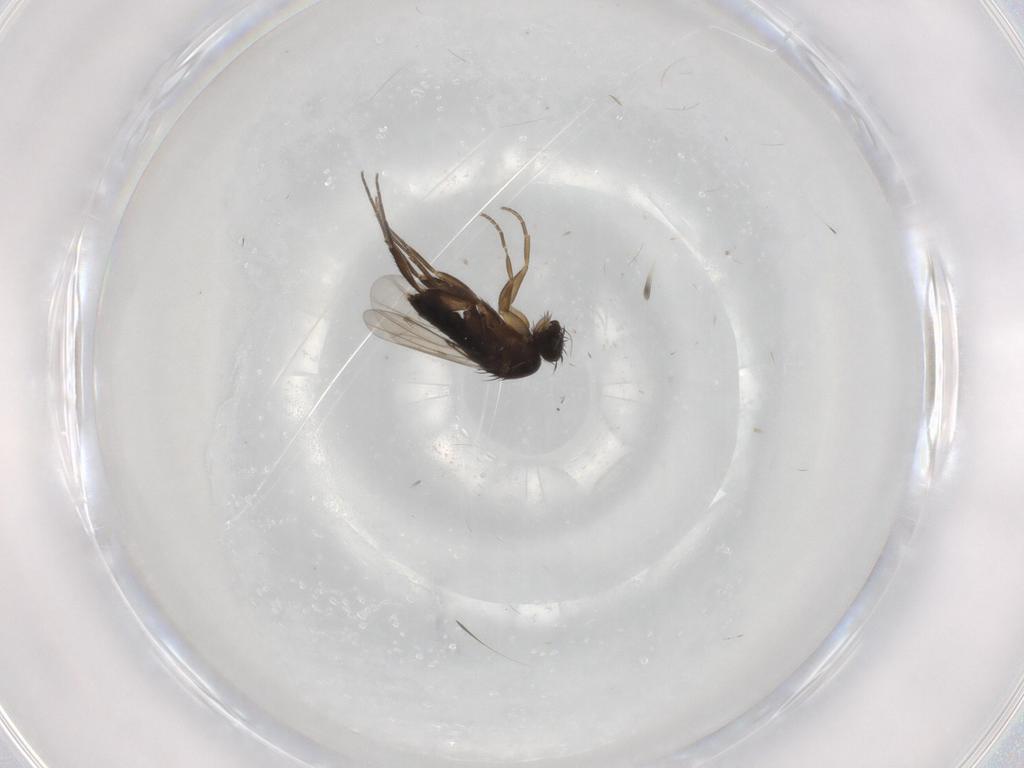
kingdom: Animalia
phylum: Arthropoda
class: Insecta
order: Diptera
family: Phoridae
